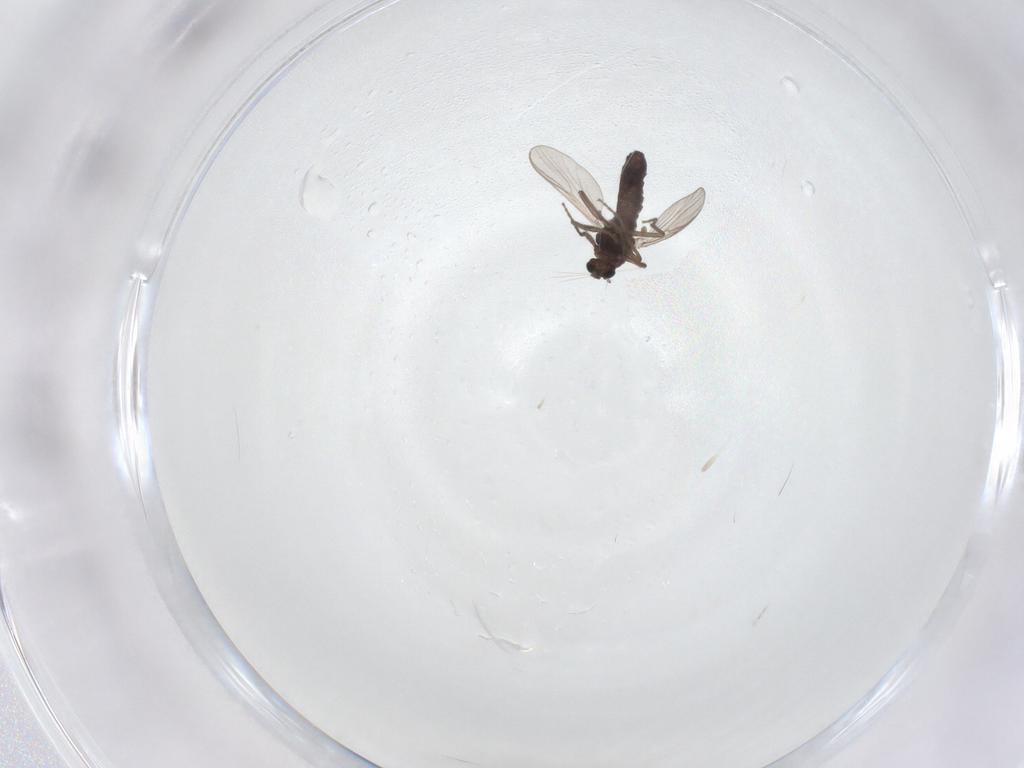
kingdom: Animalia
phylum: Arthropoda
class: Insecta
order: Diptera
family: Chironomidae
